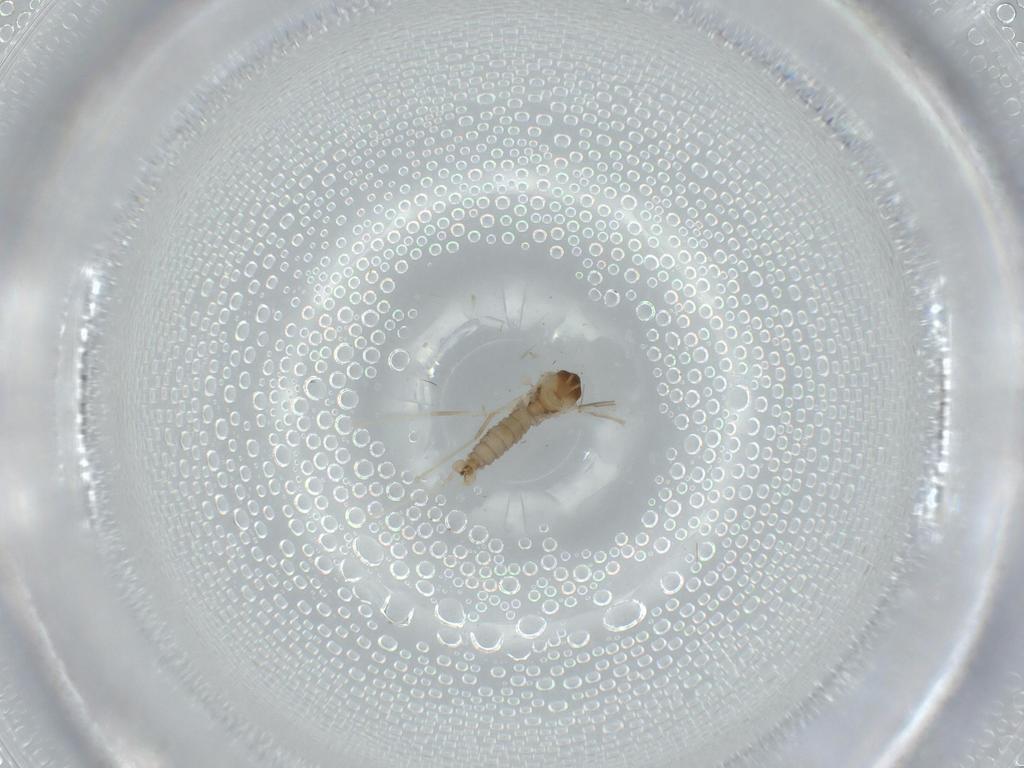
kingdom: Animalia
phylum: Arthropoda
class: Insecta
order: Diptera
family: Cecidomyiidae
